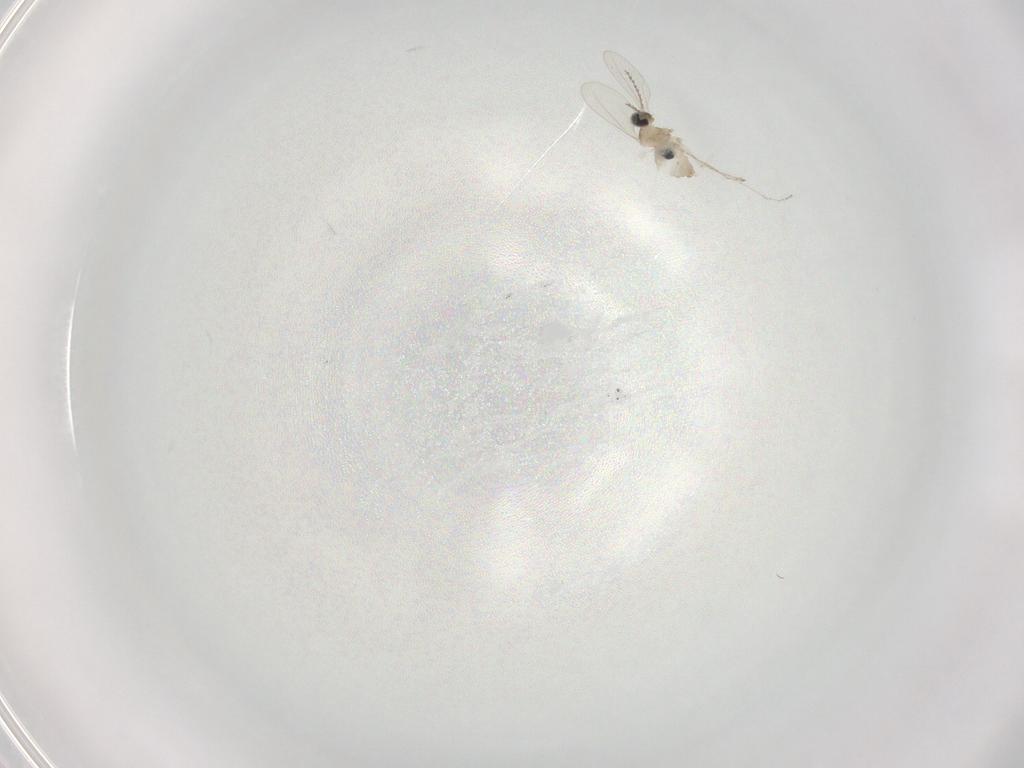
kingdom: Animalia
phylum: Arthropoda
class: Insecta
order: Diptera
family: Cecidomyiidae
